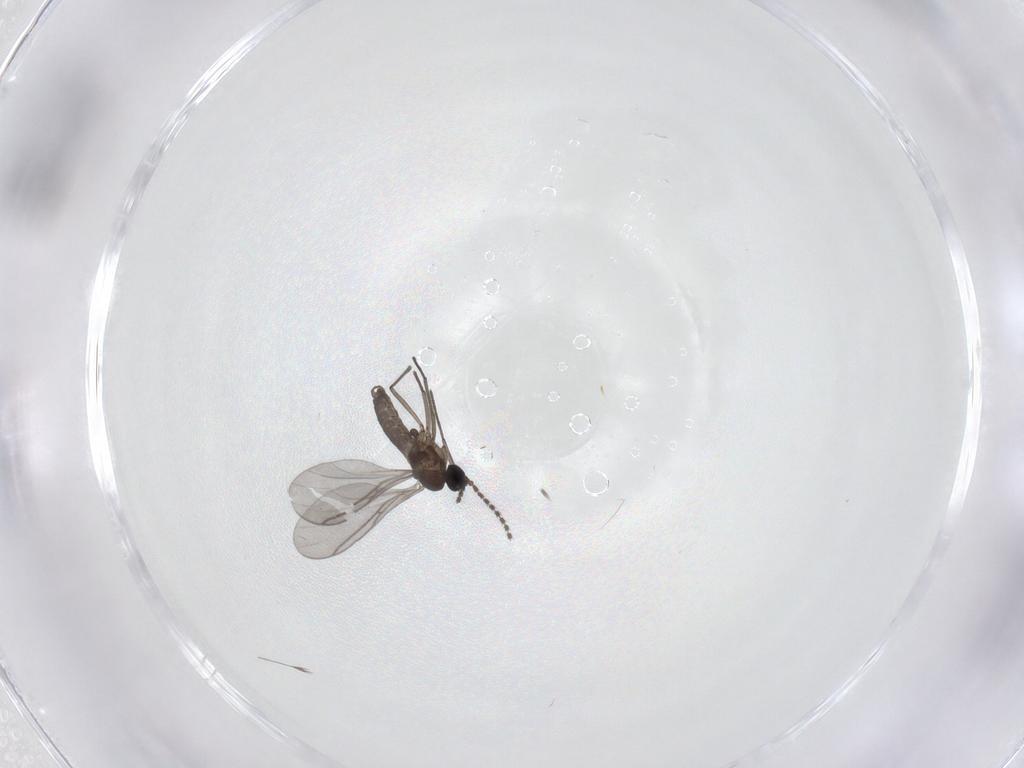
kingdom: Animalia
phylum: Arthropoda
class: Insecta
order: Diptera
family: Sciaridae
